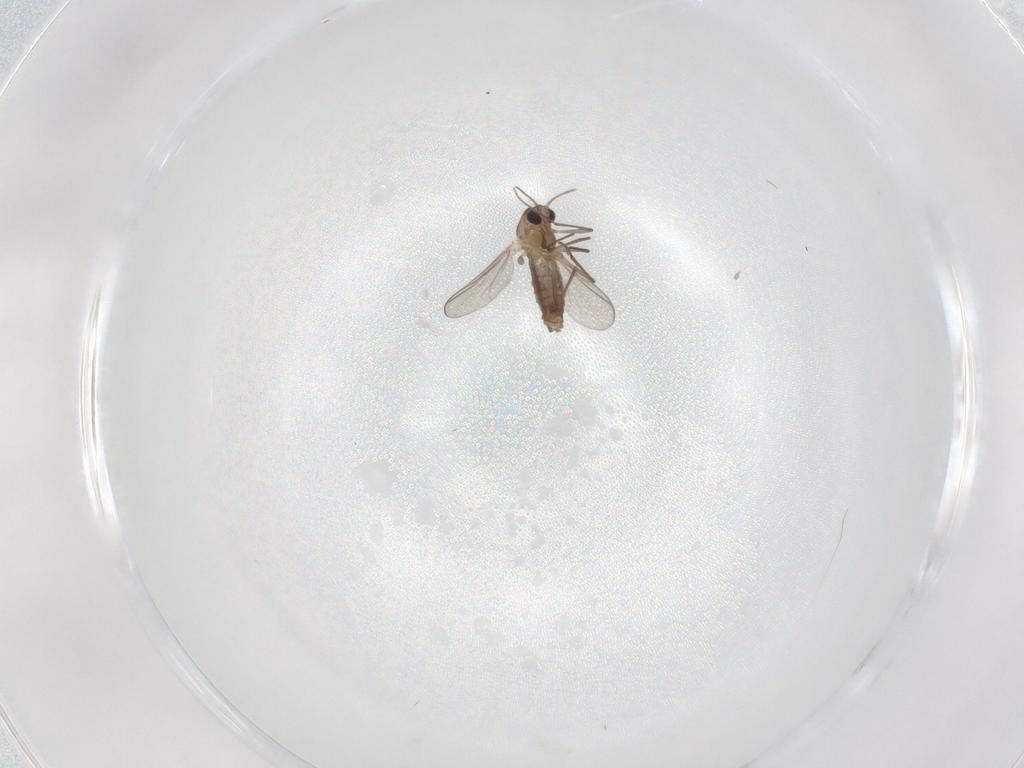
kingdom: Animalia
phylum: Arthropoda
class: Insecta
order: Diptera
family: Chironomidae
